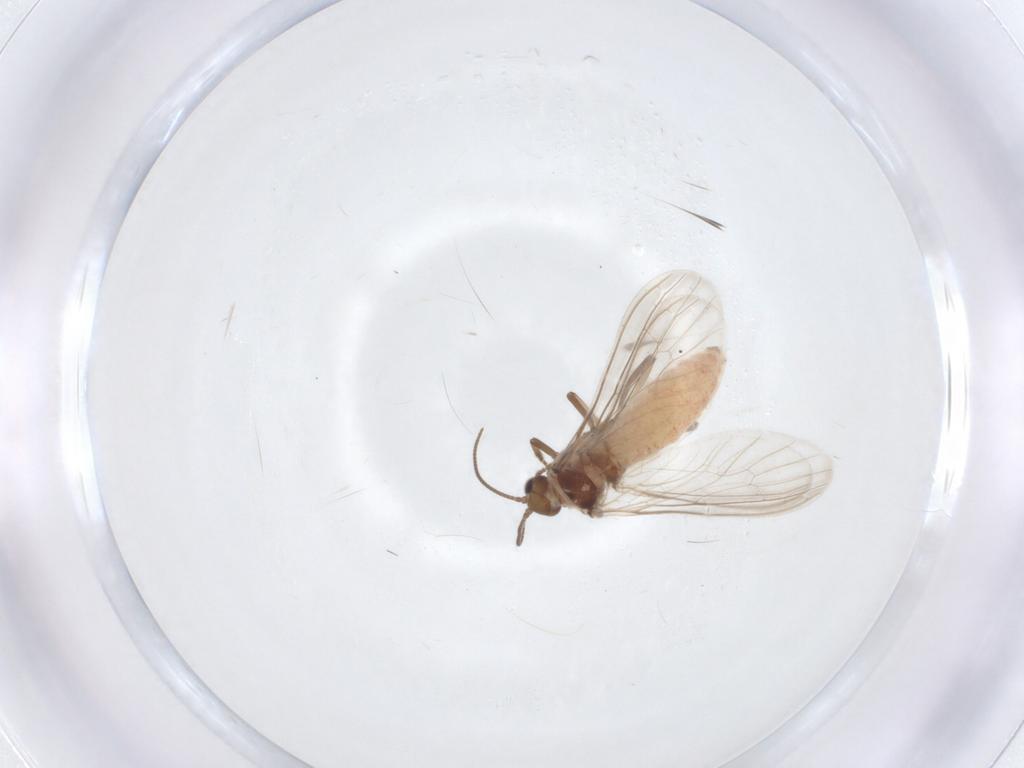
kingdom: Animalia
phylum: Arthropoda
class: Insecta
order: Neuroptera
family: Coniopterygidae
